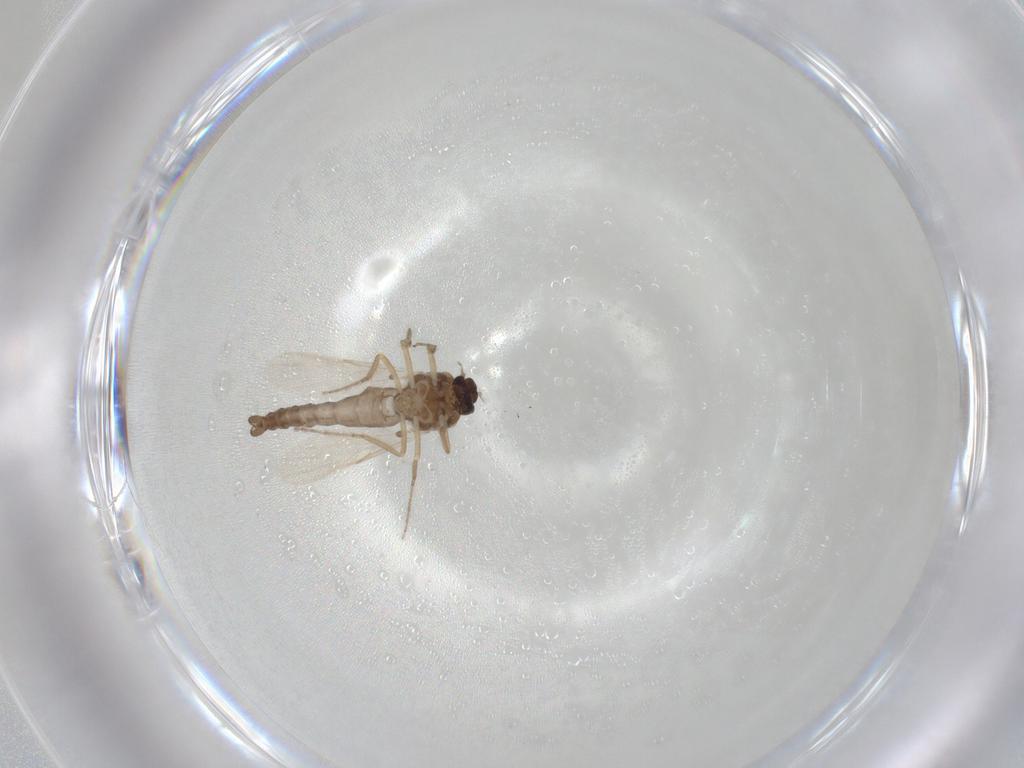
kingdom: Animalia
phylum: Arthropoda
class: Insecta
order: Diptera
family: Ceratopogonidae
